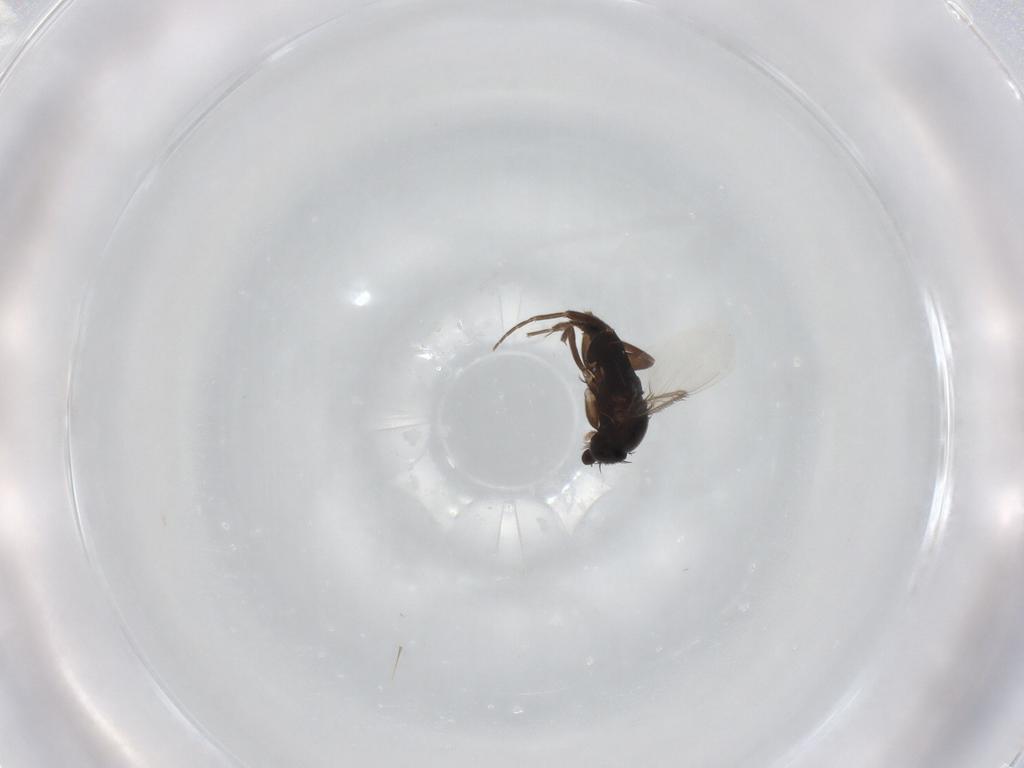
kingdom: Animalia
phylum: Arthropoda
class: Insecta
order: Diptera
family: Phoridae
